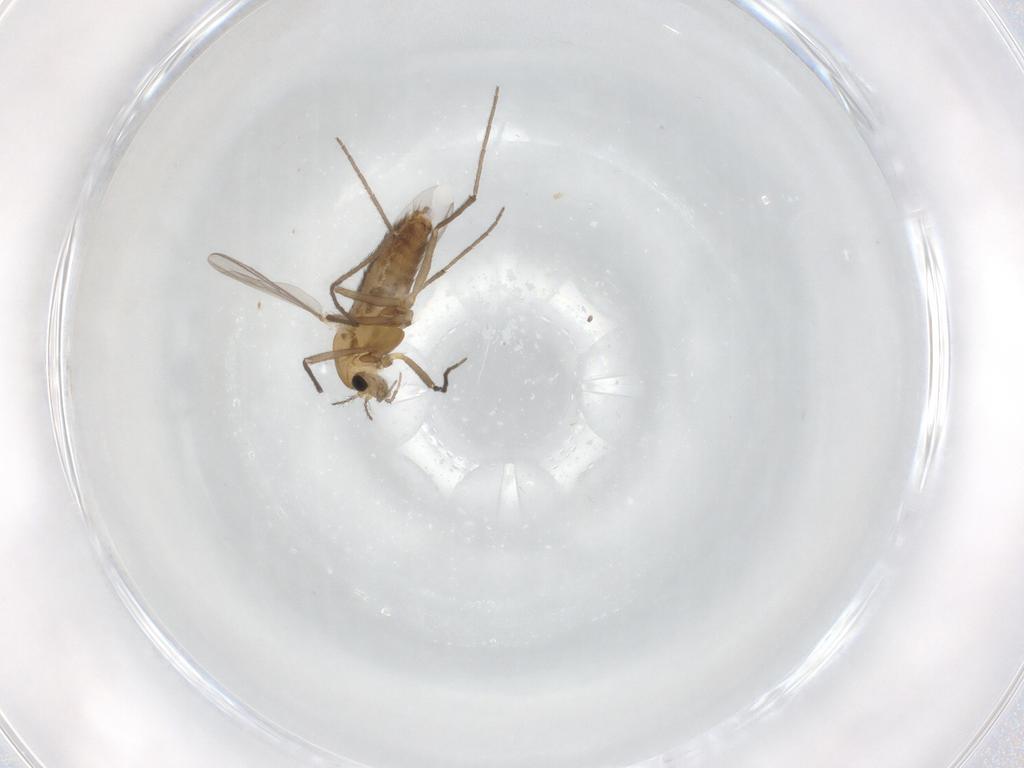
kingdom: Animalia
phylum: Arthropoda
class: Insecta
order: Diptera
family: Chironomidae
